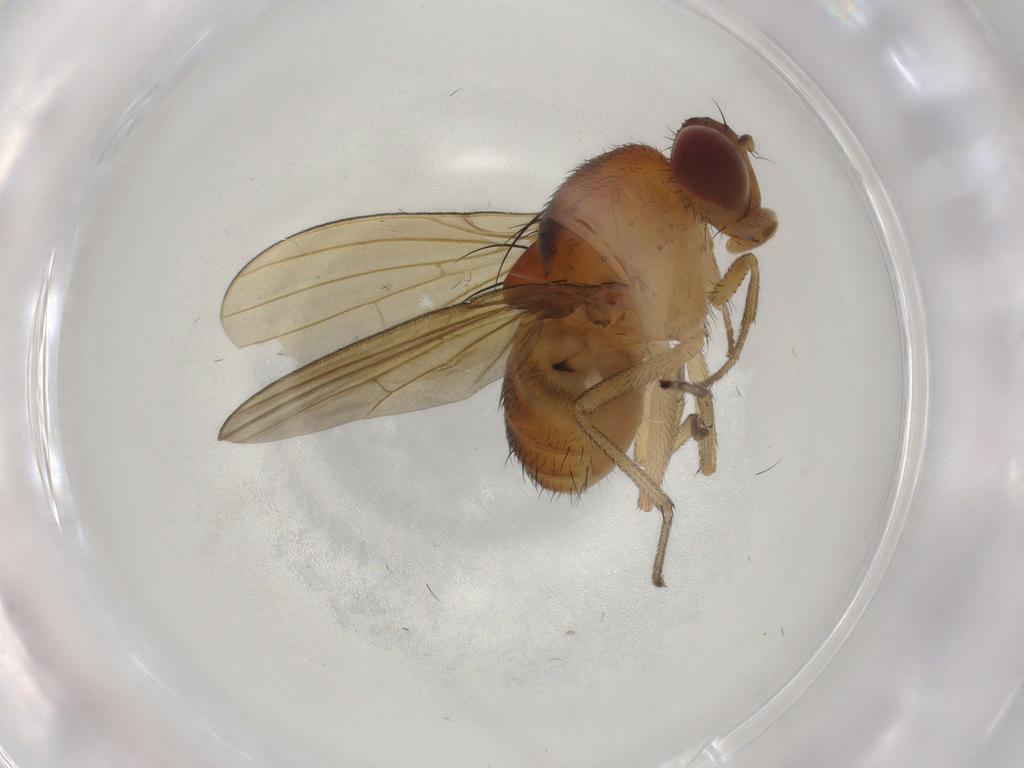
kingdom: Animalia
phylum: Arthropoda
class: Insecta
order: Diptera
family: Lauxaniidae
